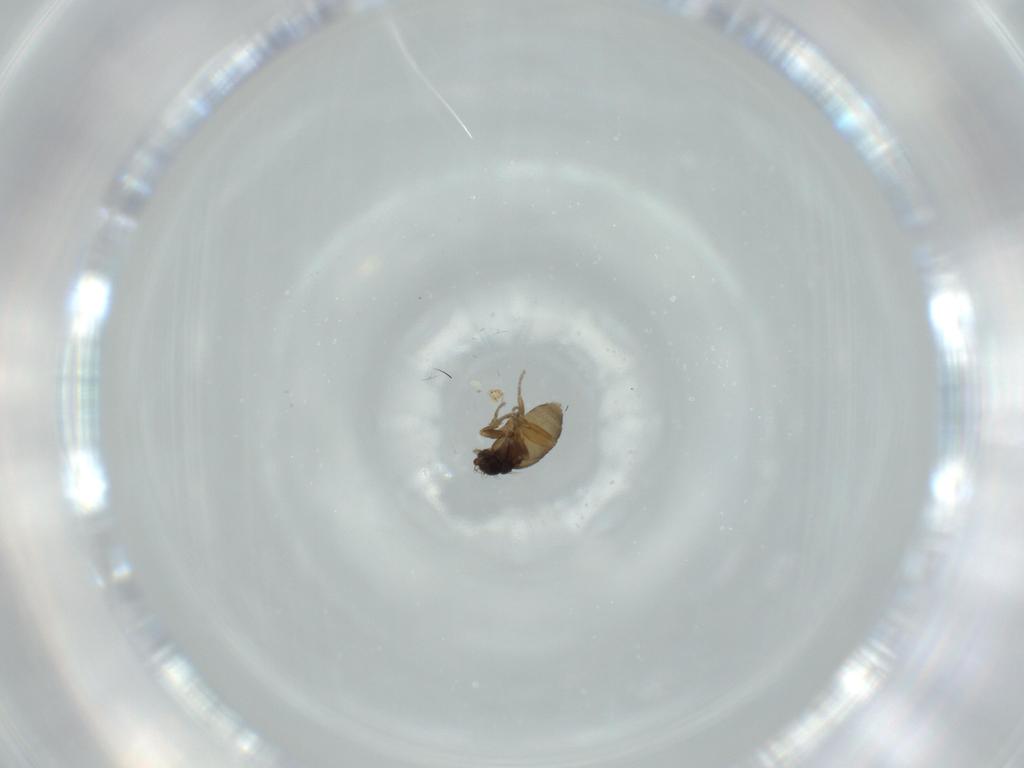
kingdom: Animalia
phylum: Arthropoda
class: Insecta
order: Diptera
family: Phoridae
